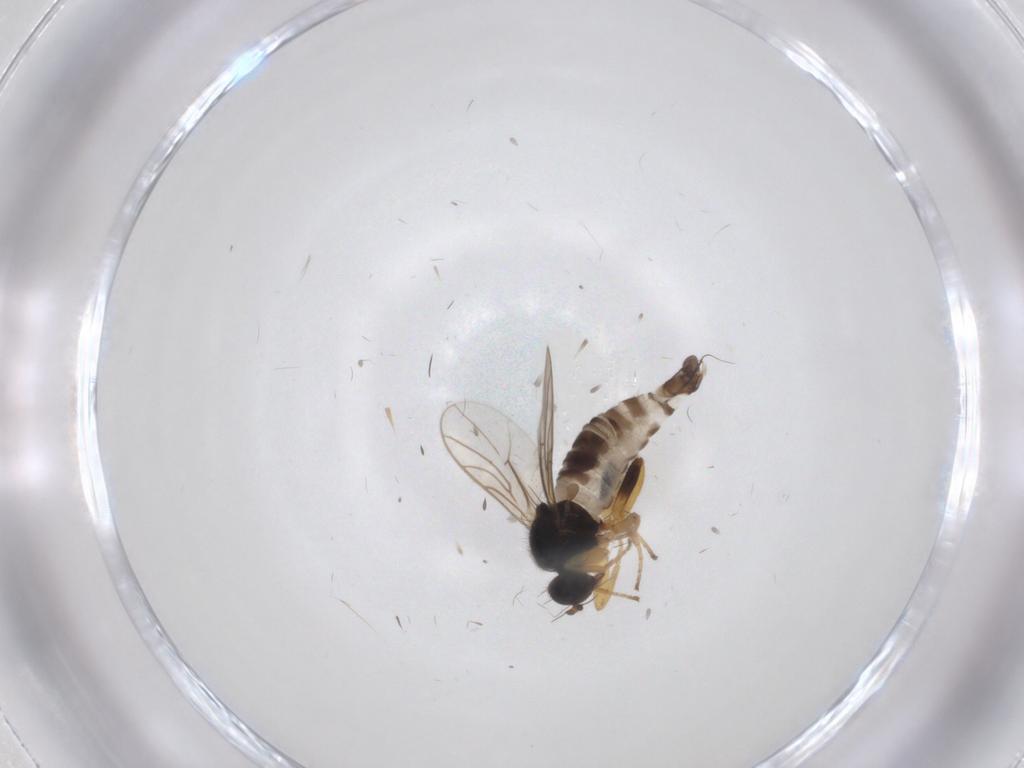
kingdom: Animalia
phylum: Arthropoda
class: Insecta
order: Diptera
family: Hybotidae
